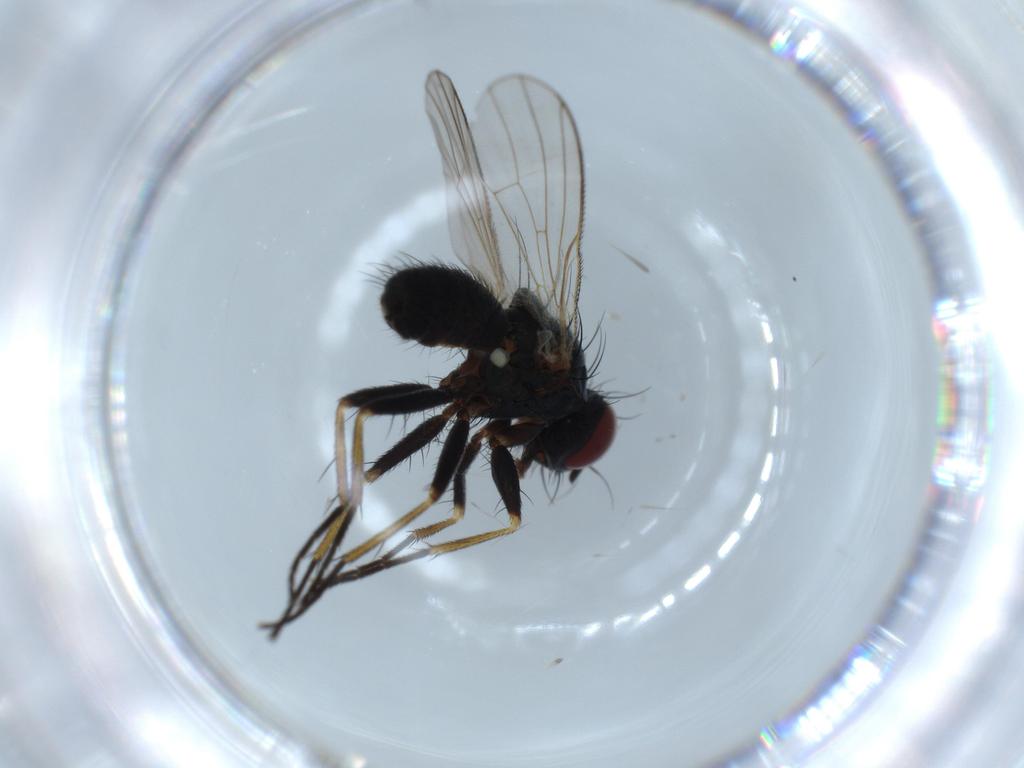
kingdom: Animalia
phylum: Arthropoda
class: Insecta
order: Diptera
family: Muscidae
